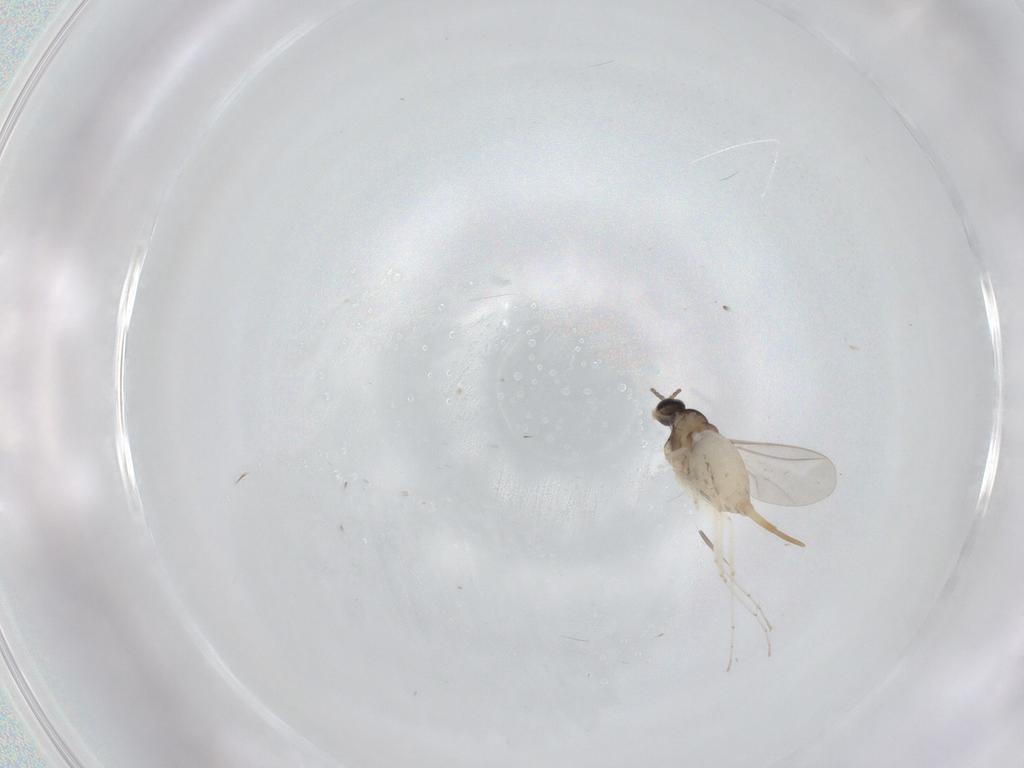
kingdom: Animalia
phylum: Arthropoda
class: Insecta
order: Diptera
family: Cecidomyiidae
